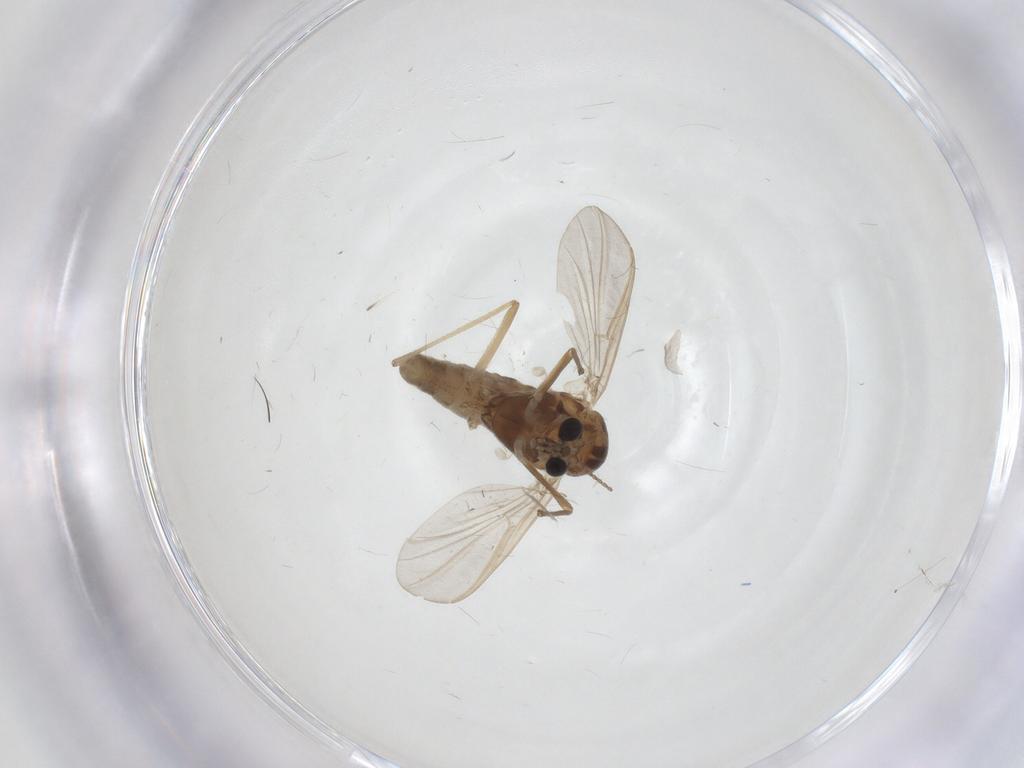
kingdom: Animalia
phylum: Arthropoda
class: Insecta
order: Diptera
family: Chironomidae
